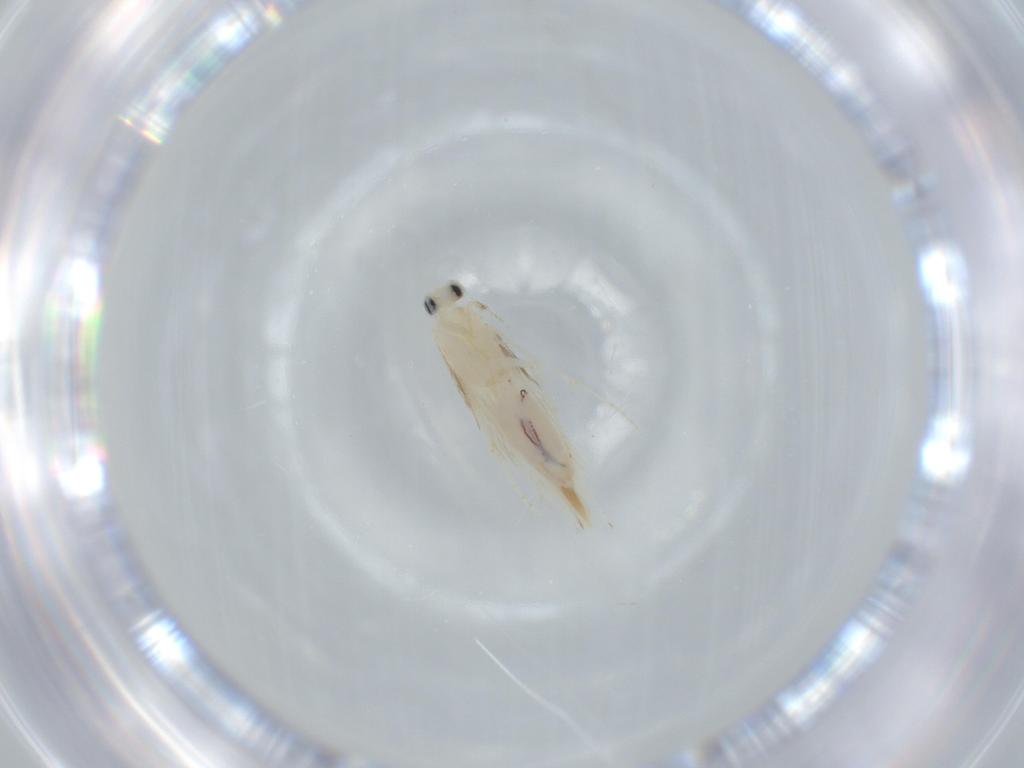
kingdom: Animalia
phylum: Arthropoda
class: Insecta
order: Trichoptera
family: Hydroptilidae
